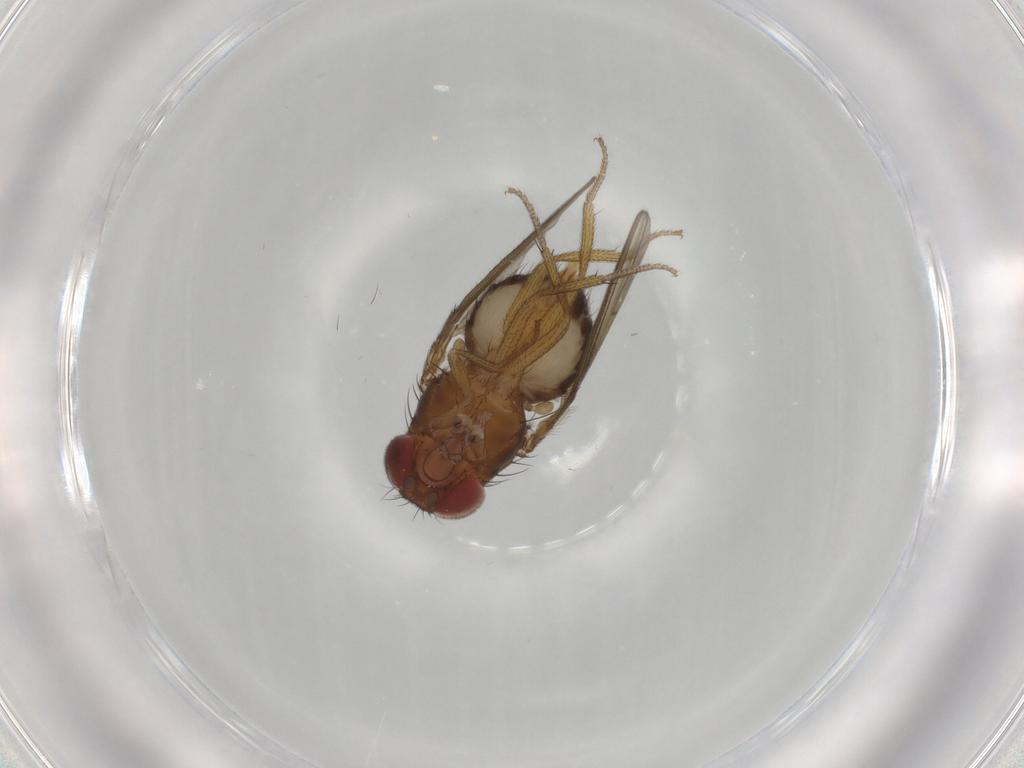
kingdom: Animalia
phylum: Arthropoda
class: Insecta
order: Diptera
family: Drosophilidae
